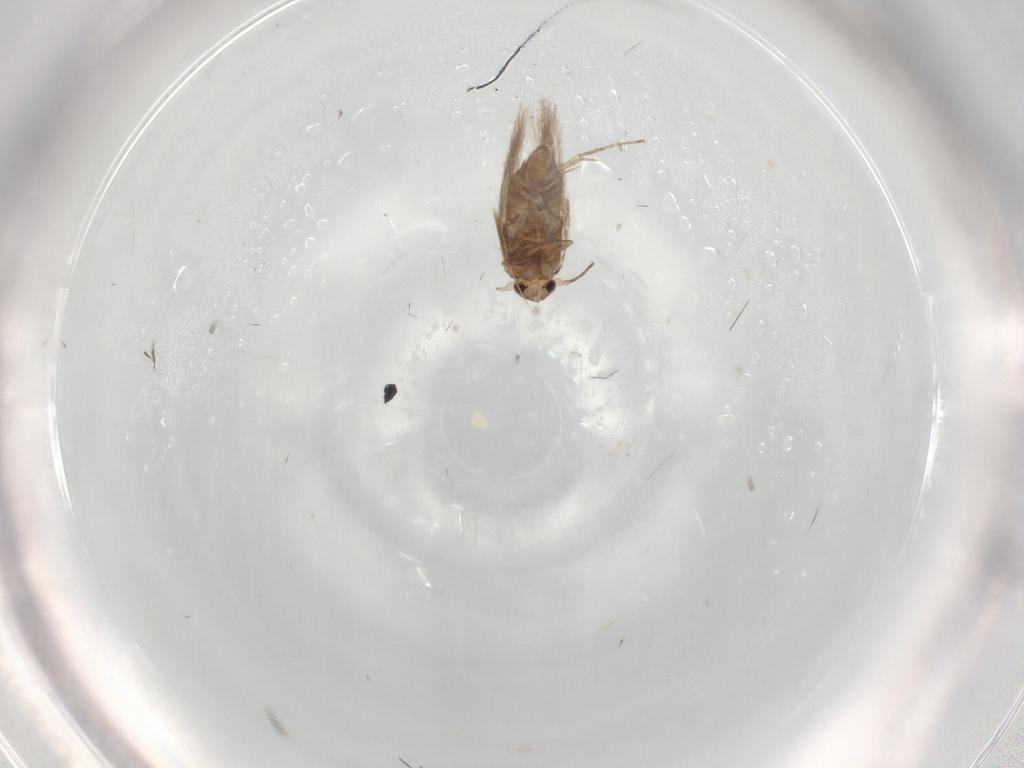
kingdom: Animalia
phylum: Arthropoda
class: Insecta
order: Lepidoptera
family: Nymphalidae
